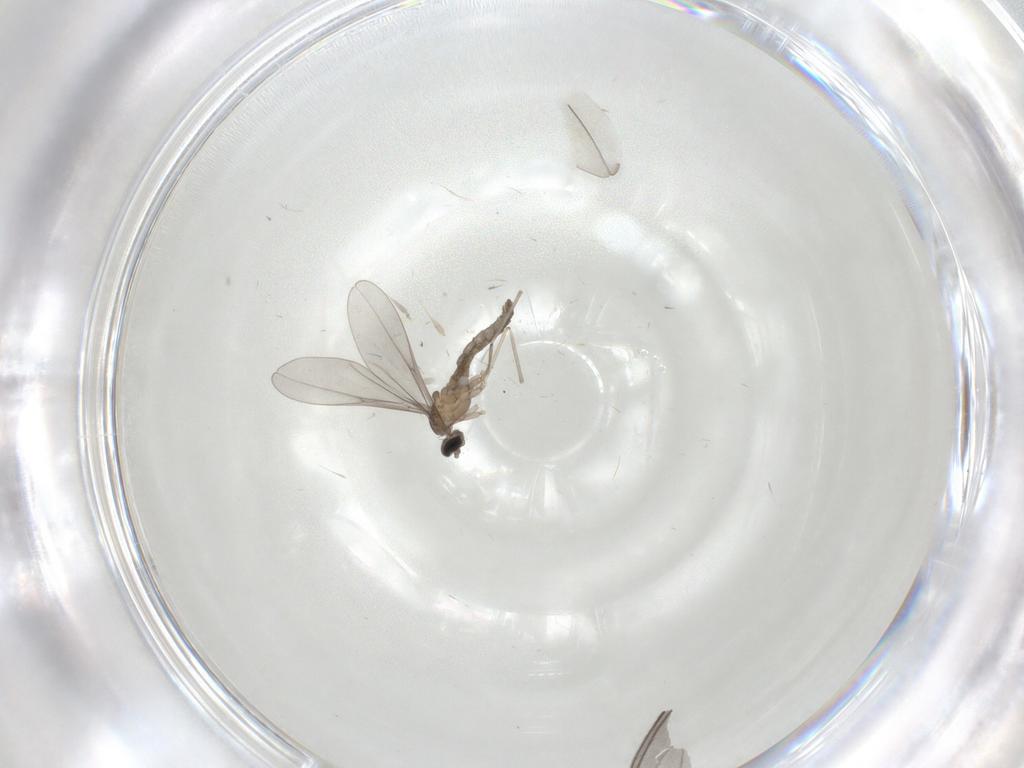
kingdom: Animalia
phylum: Arthropoda
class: Insecta
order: Diptera
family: Cecidomyiidae
